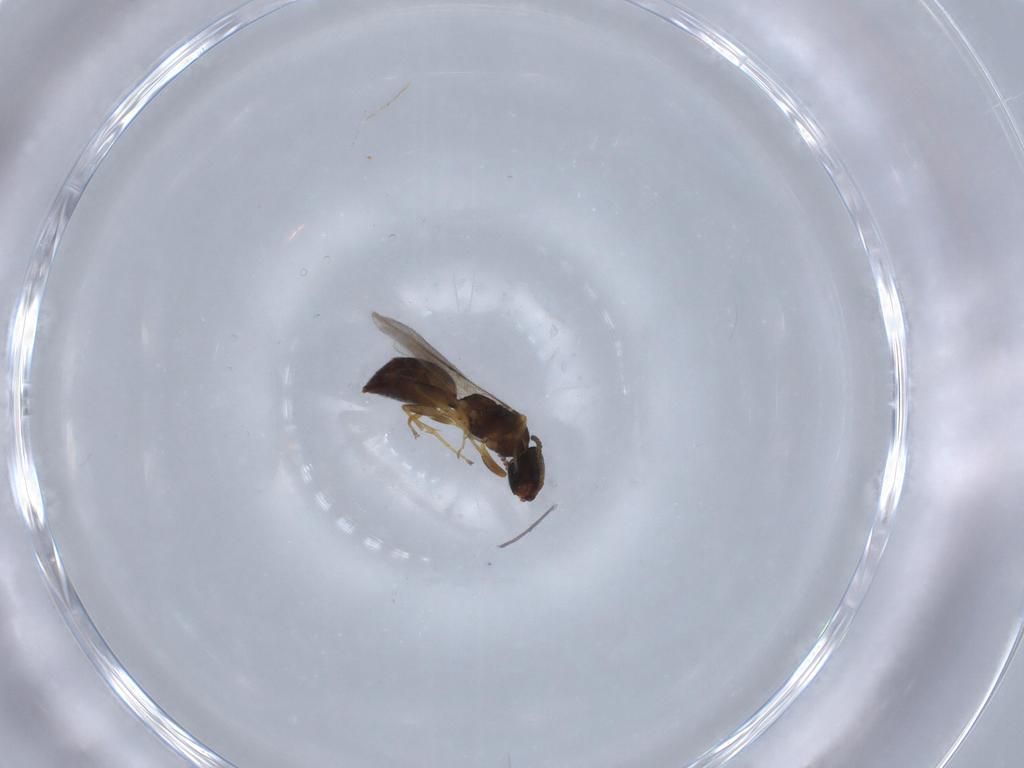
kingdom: Animalia
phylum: Arthropoda
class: Insecta
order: Hymenoptera
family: Bethylidae
